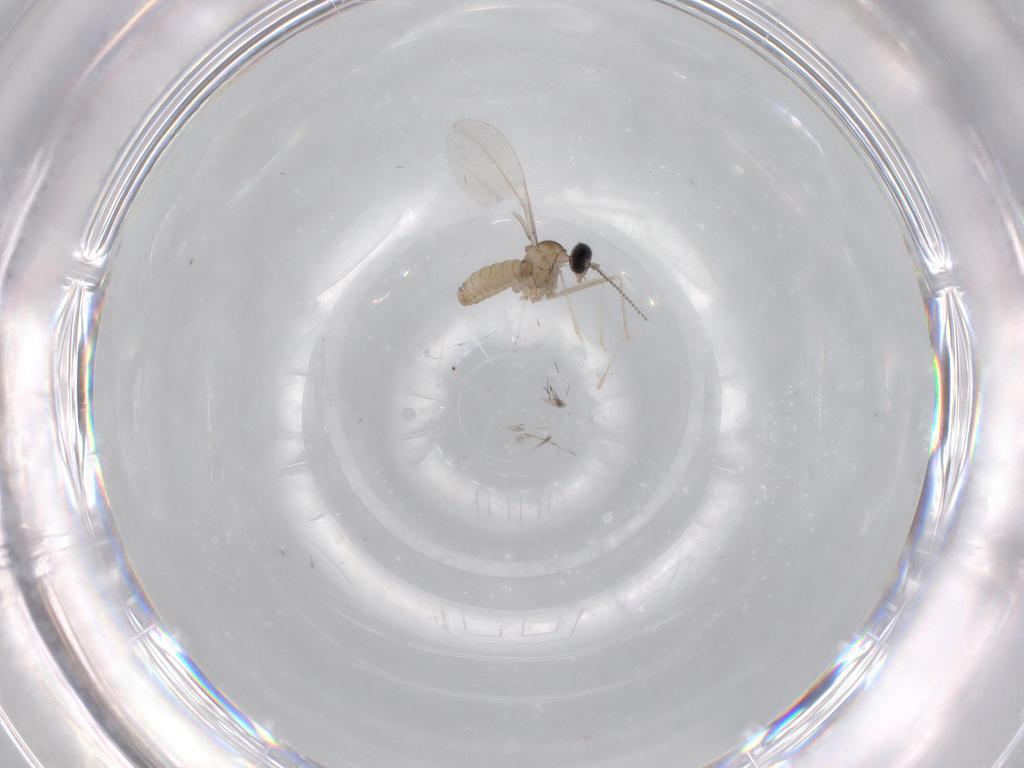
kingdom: Animalia
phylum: Arthropoda
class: Insecta
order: Diptera
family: Cecidomyiidae
